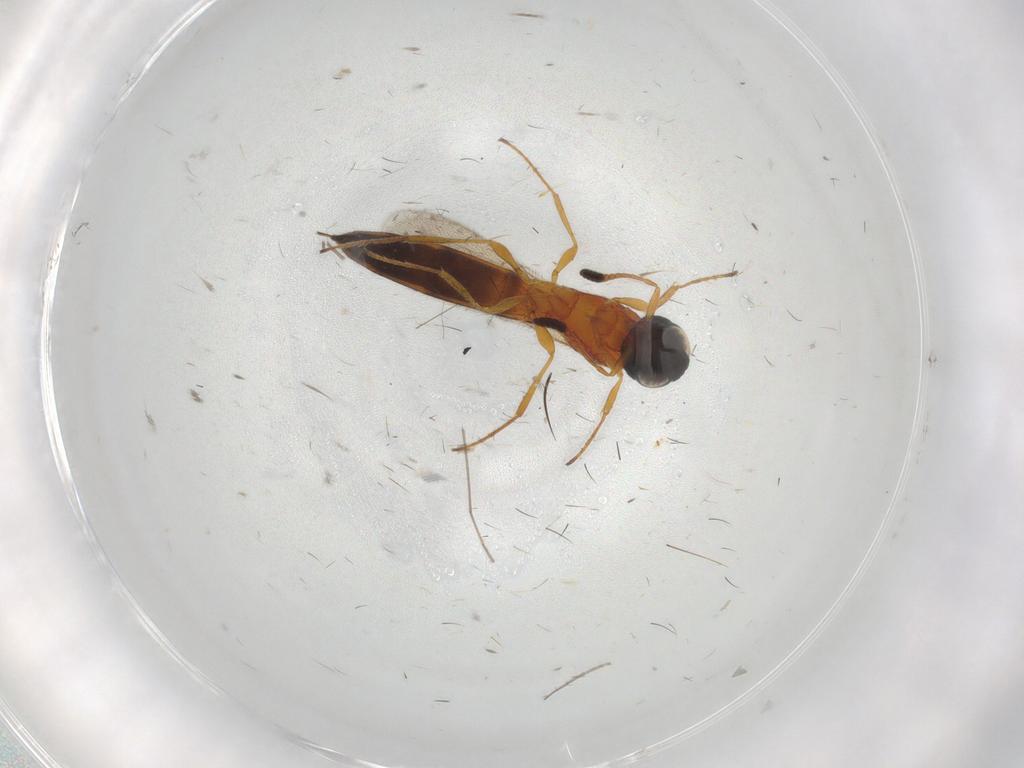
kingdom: Animalia
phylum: Arthropoda
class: Insecta
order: Hymenoptera
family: Scelionidae
